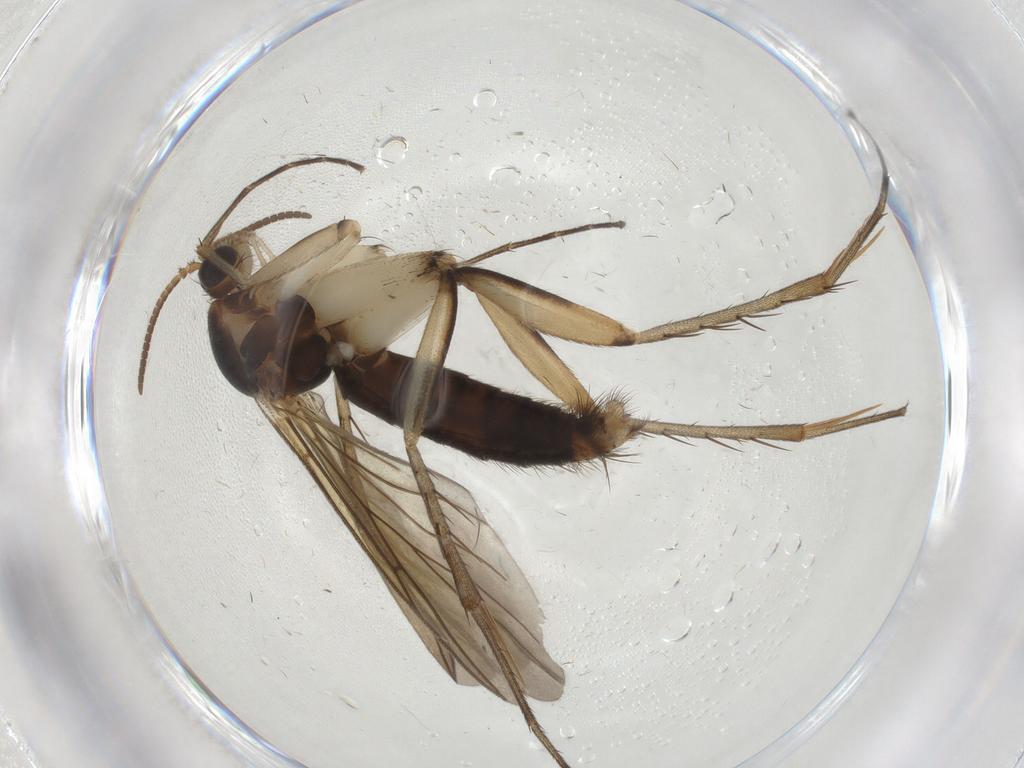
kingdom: Animalia
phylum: Arthropoda
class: Insecta
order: Diptera
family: Mycetophilidae
